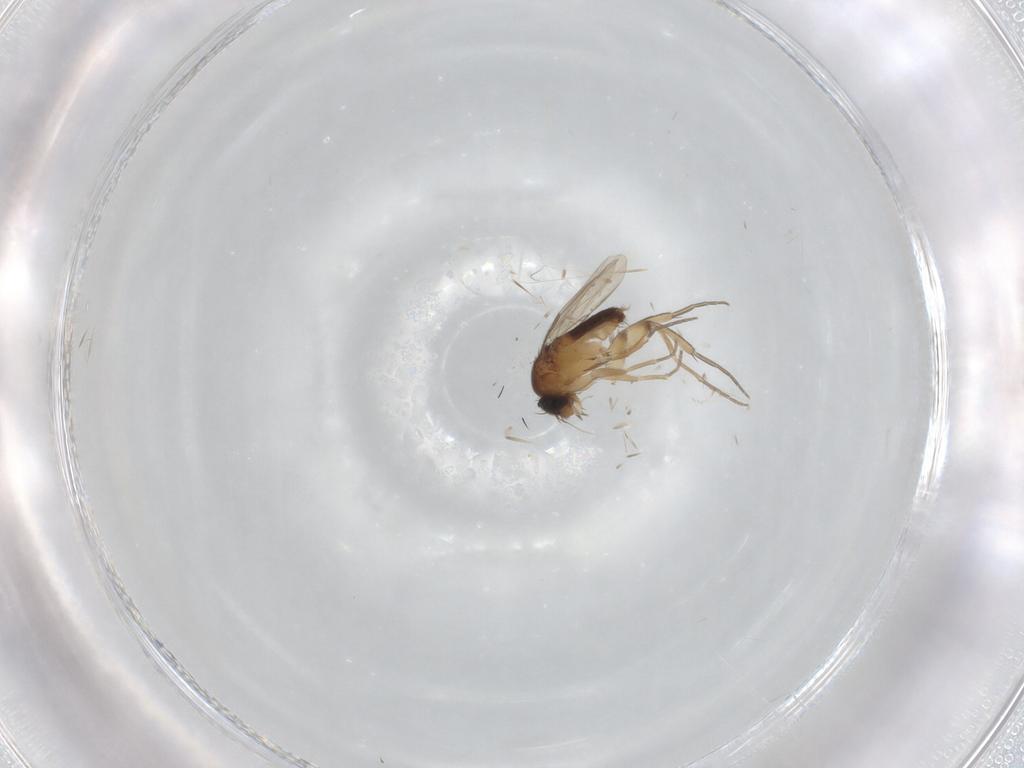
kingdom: Animalia
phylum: Arthropoda
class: Insecta
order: Diptera
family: Phoridae
